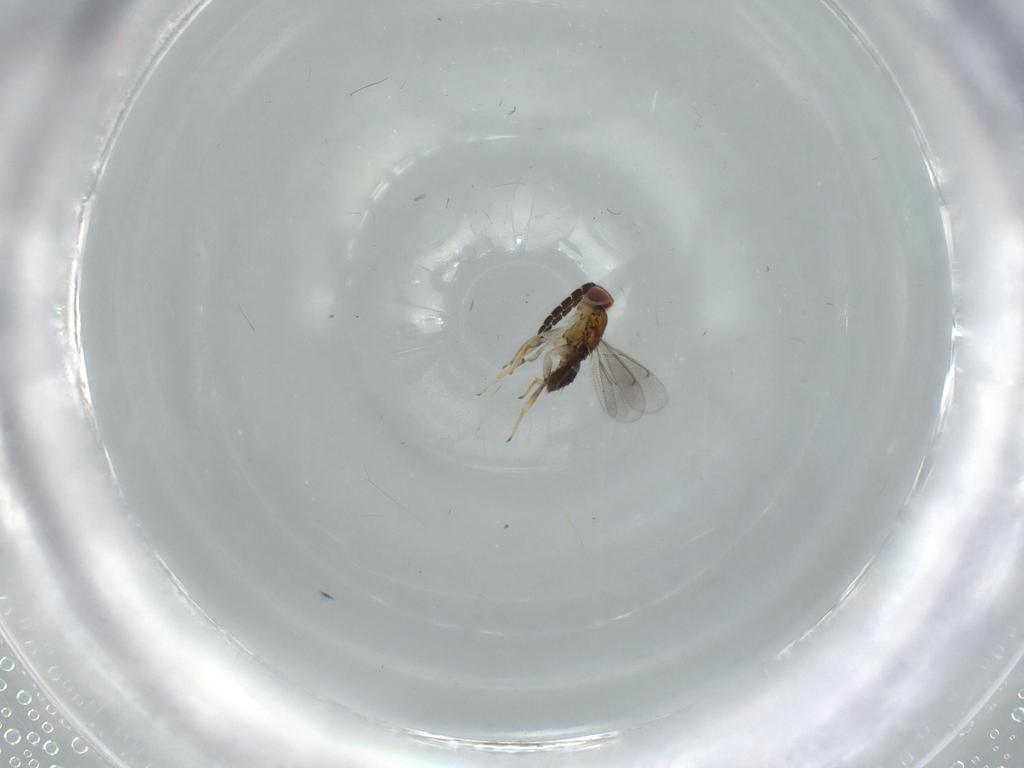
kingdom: Animalia
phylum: Arthropoda
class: Insecta
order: Hymenoptera
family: Aphelinidae
